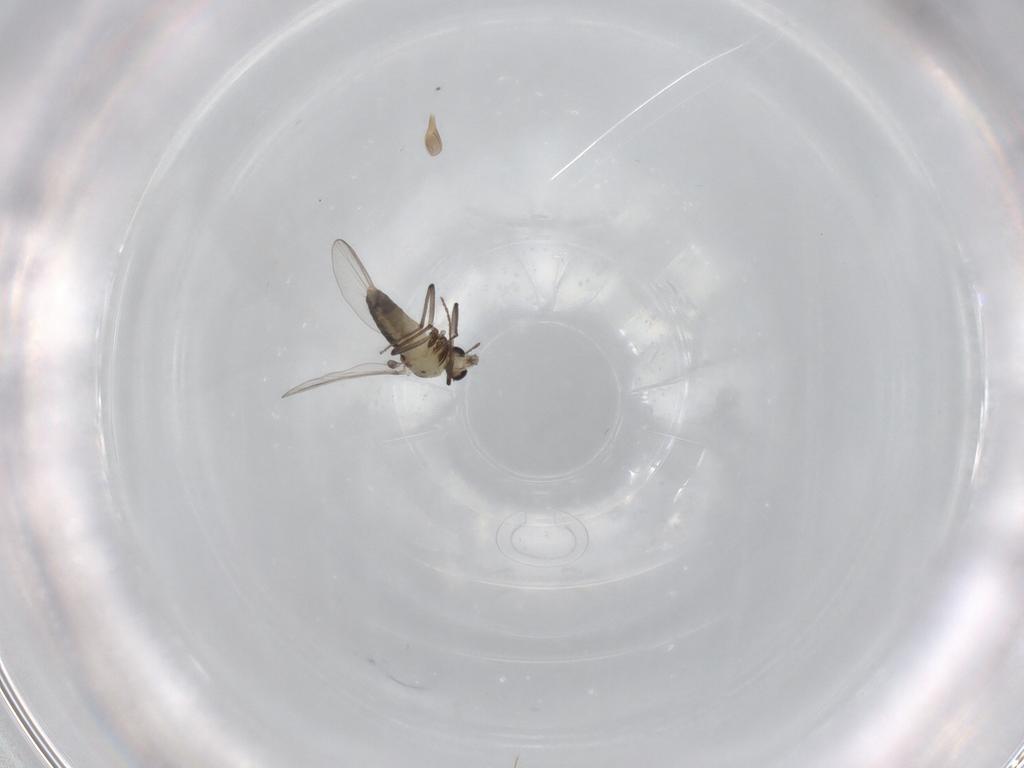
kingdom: Animalia
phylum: Arthropoda
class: Insecta
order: Diptera
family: Chironomidae
